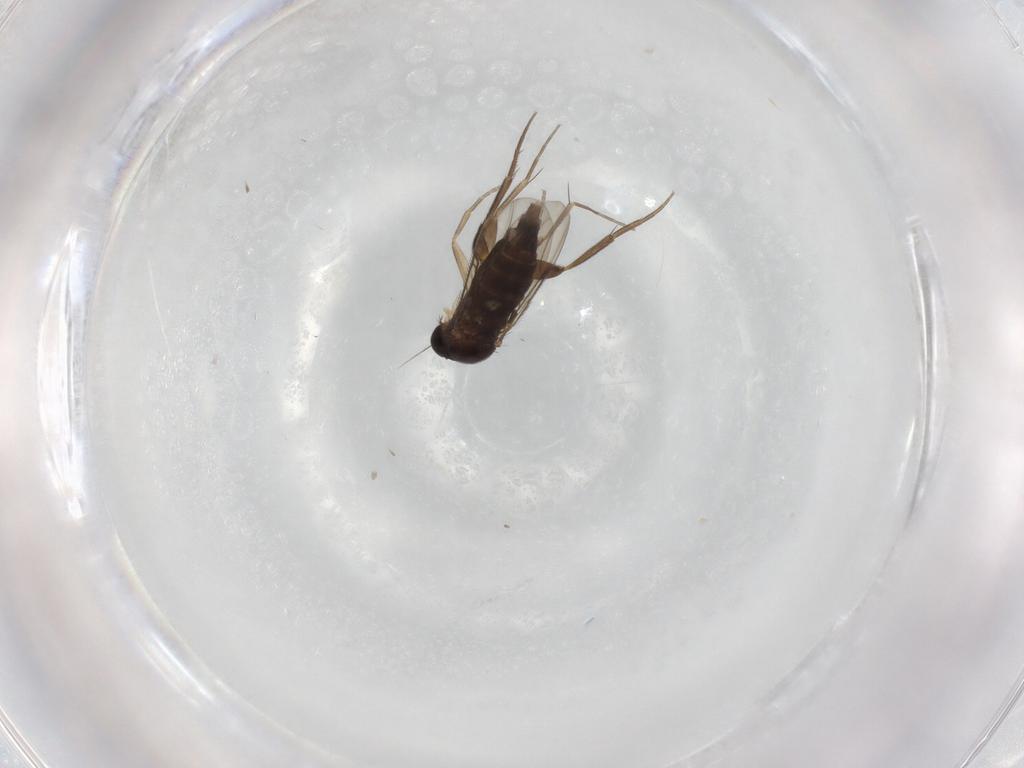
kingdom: Animalia
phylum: Arthropoda
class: Insecta
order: Diptera
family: Phoridae
